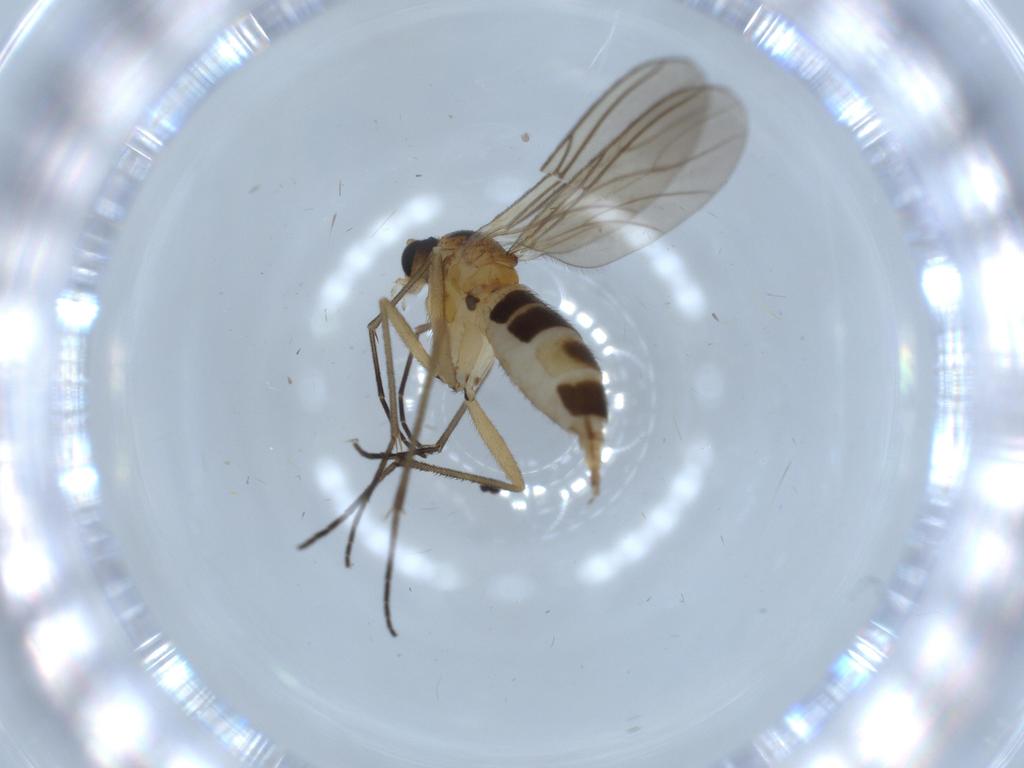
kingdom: Animalia
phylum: Arthropoda
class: Insecta
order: Diptera
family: Sciaridae
